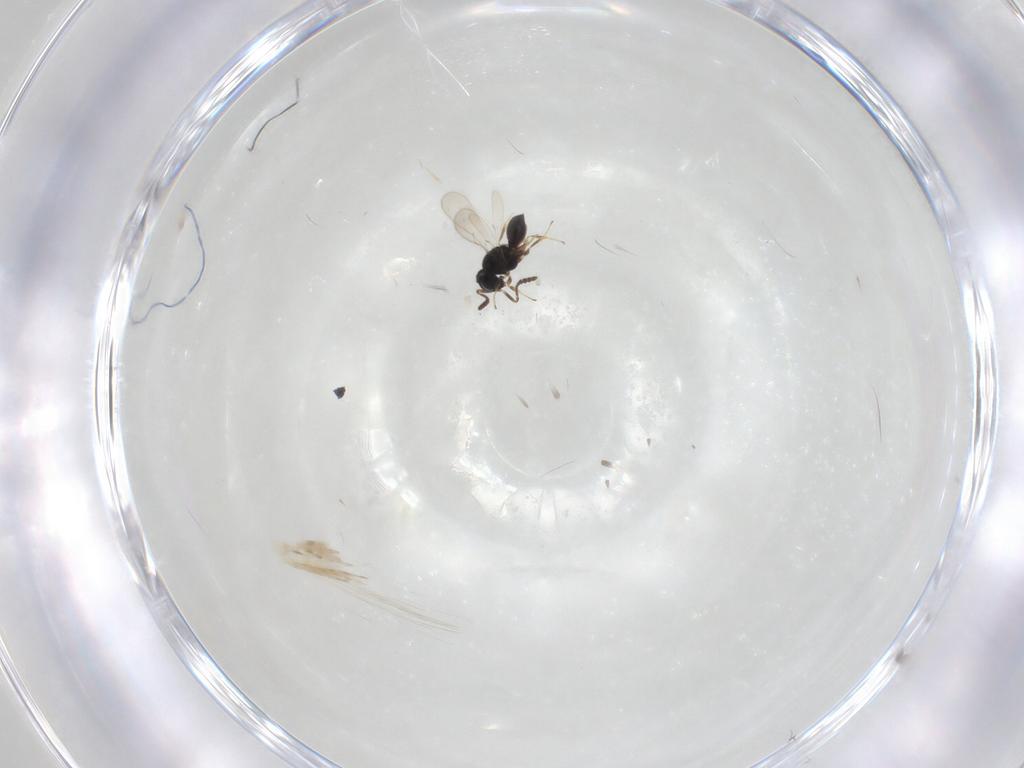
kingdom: Animalia
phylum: Arthropoda
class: Insecta
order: Hymenoptera
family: Scelionidae
